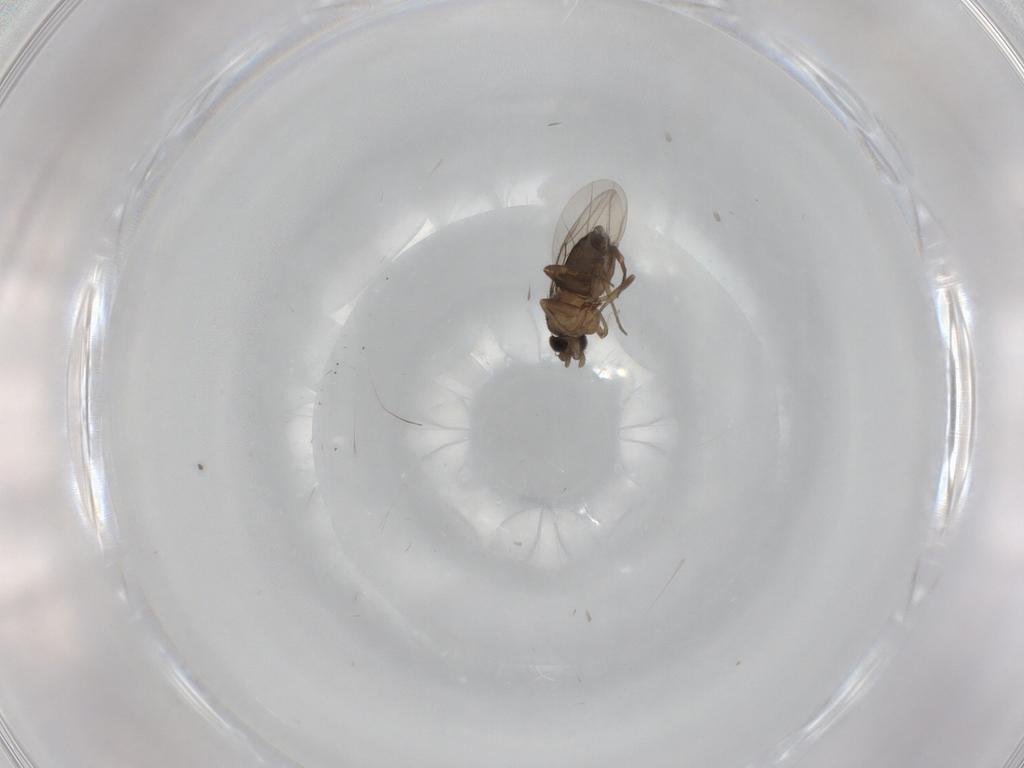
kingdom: Animalia
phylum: Arthropoda
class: Insecta
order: Diptera
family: Phoridae
